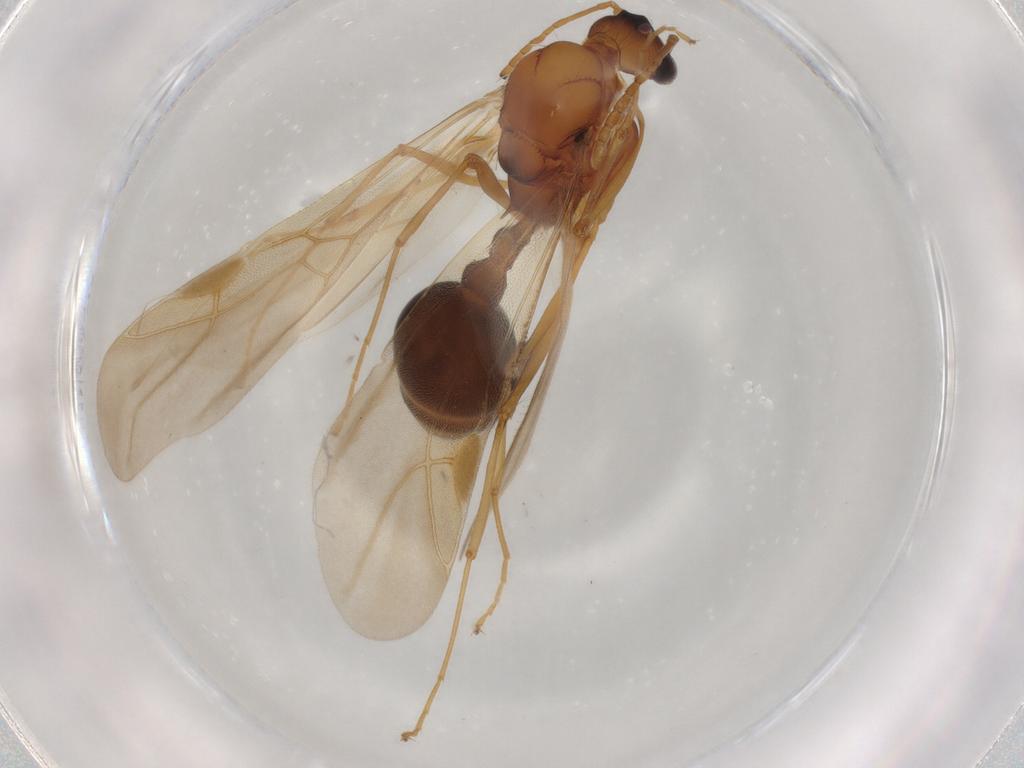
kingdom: Animalia
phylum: Arthropoda
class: Insecta
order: Hymenoptera
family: Formicidae
